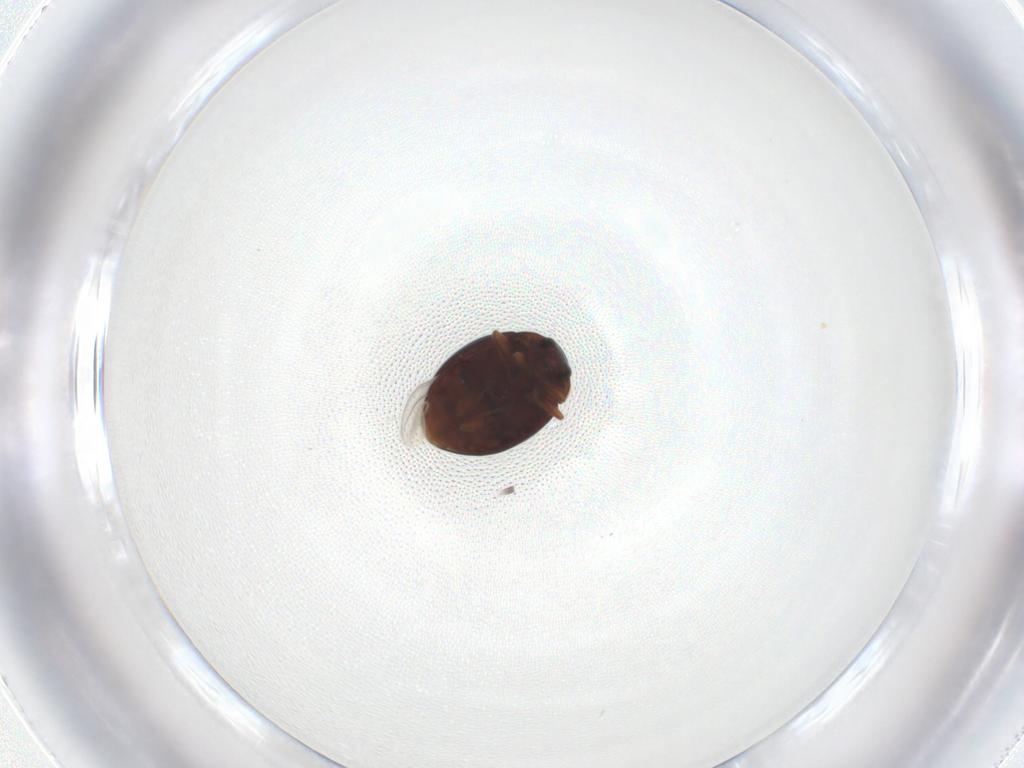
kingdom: Animalia
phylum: Arthropoda
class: Insecta
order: Coleoptera
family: Coccinellidae
